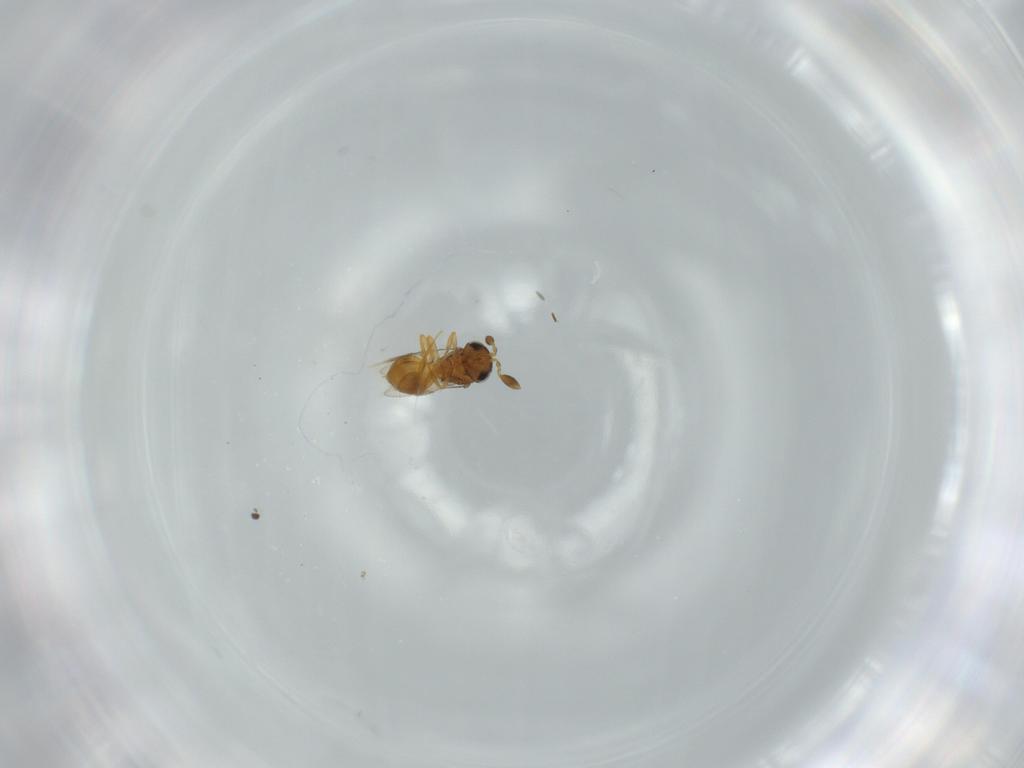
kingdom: Animalia
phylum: Arthropoda
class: Insecta
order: Hymenoptera
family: Scelionidae
